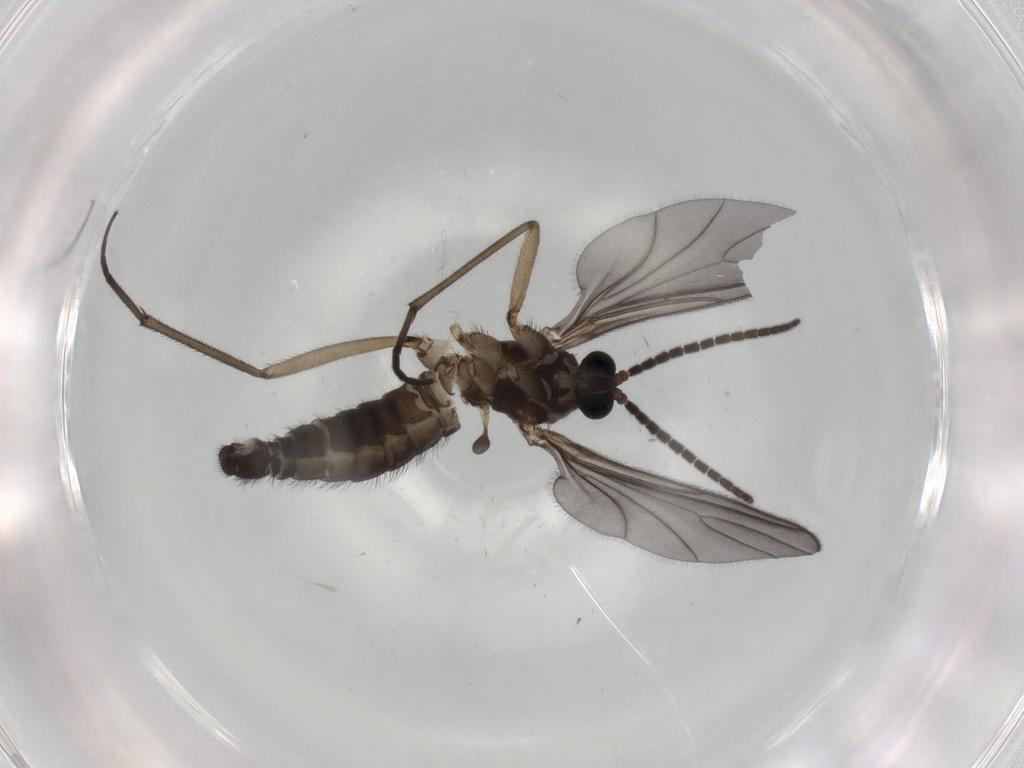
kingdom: Animalia
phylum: Arthropoda
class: Insecta
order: Diptera
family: Sciaridae
